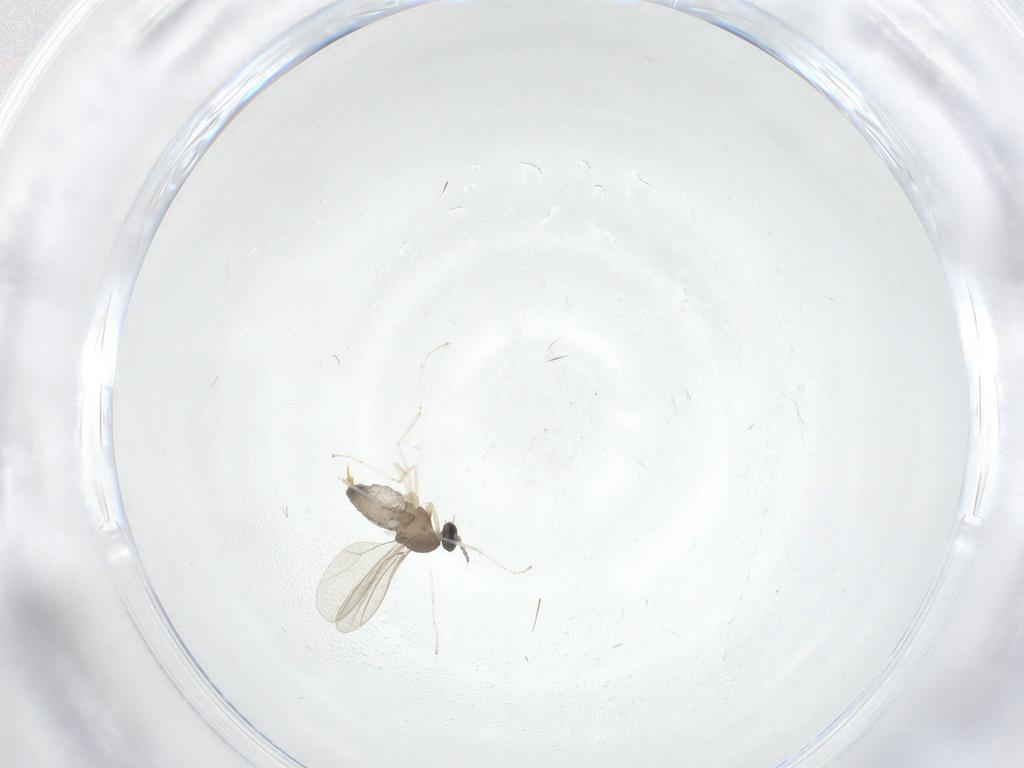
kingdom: Animalia
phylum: Arthropoda
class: Insecta
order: Diptera
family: Cecidomyiidae
